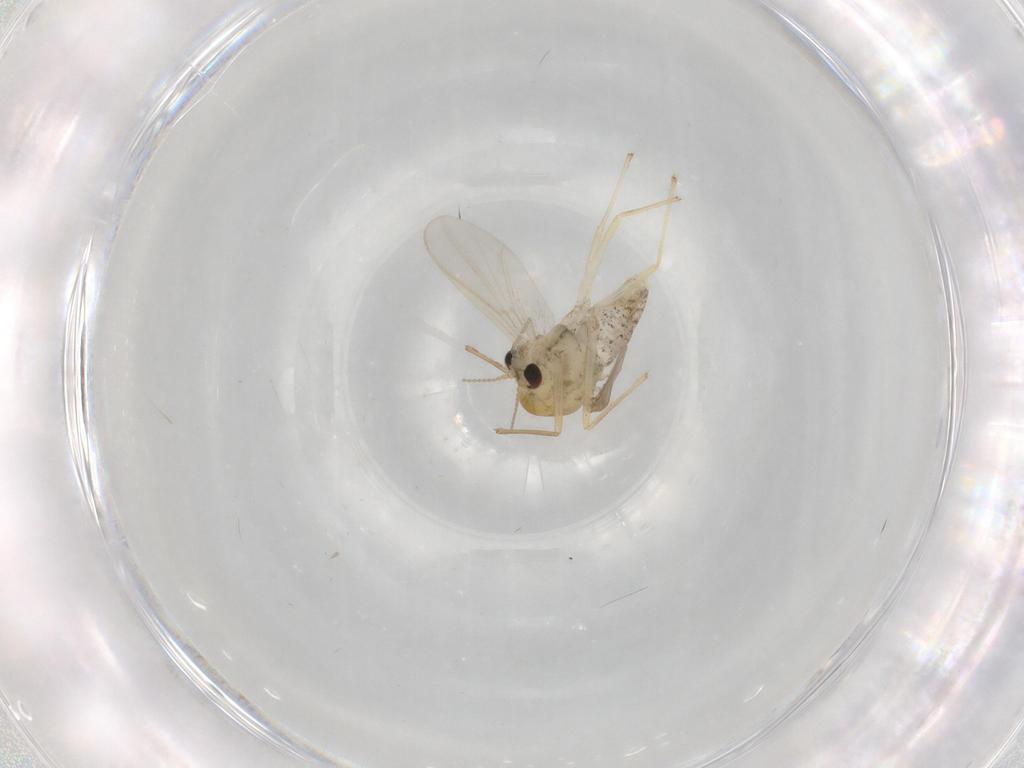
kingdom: Animalia
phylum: Arthropoda
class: Insecta
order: Diptera
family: Chironomidae
